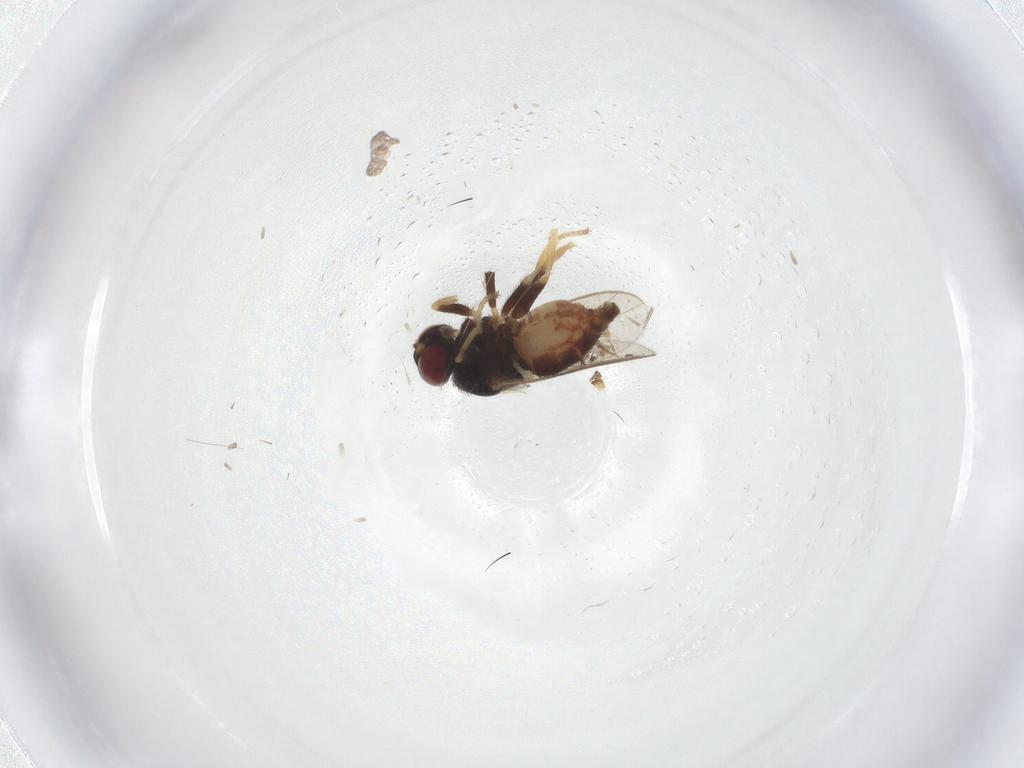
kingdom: Animalia
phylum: Arthropoda
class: Insecta
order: Diptera
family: Chloropidae
